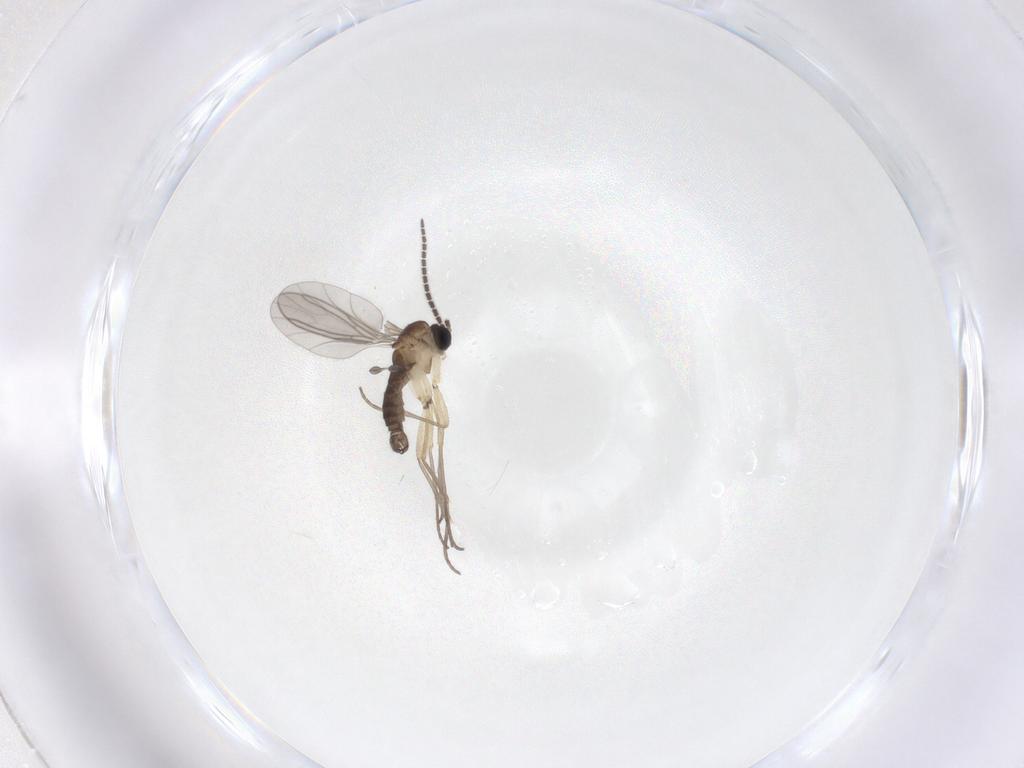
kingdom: Animalia
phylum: Arthropoda
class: Insecta
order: Diptera
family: Sciaridae
